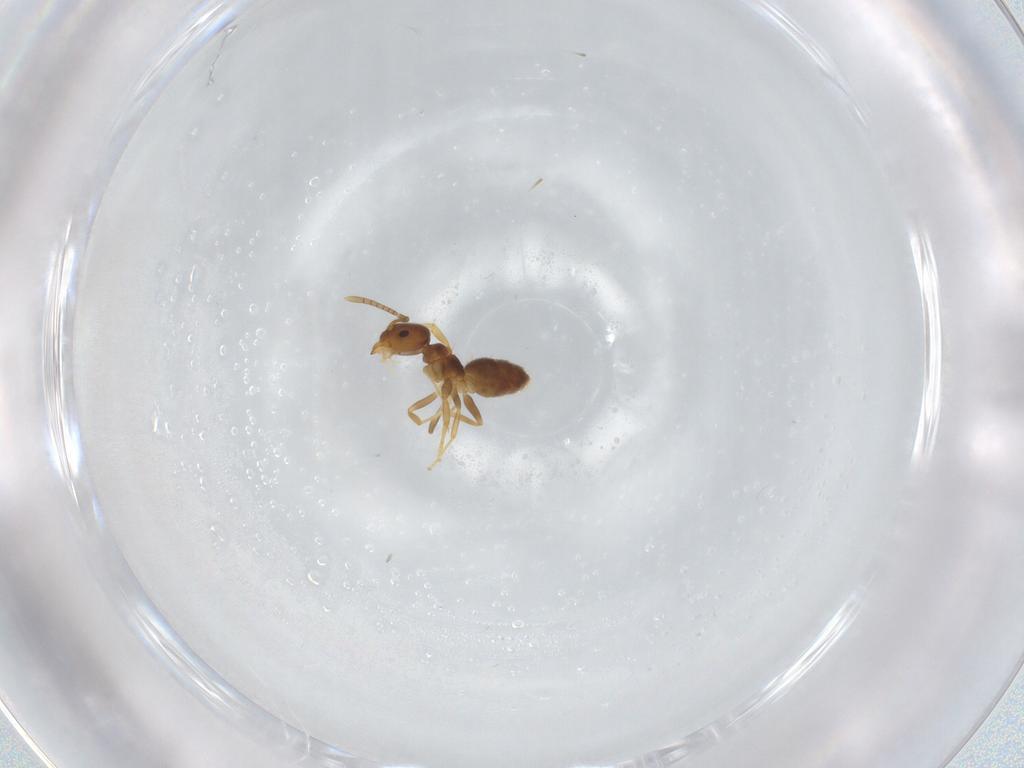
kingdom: Animalia
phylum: Arthropoda
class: Insecta
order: Hymenoptera
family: Formicidae
